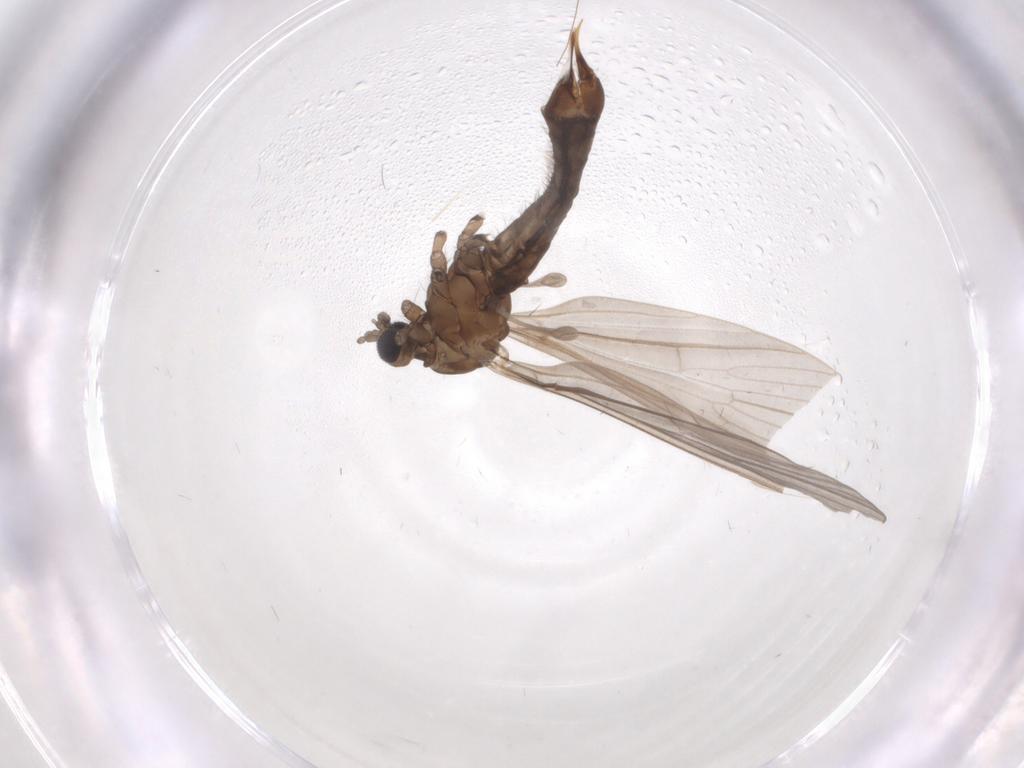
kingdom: Animalia
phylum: Arthropoda
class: Insecta
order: Diptera
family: Limoniidae
